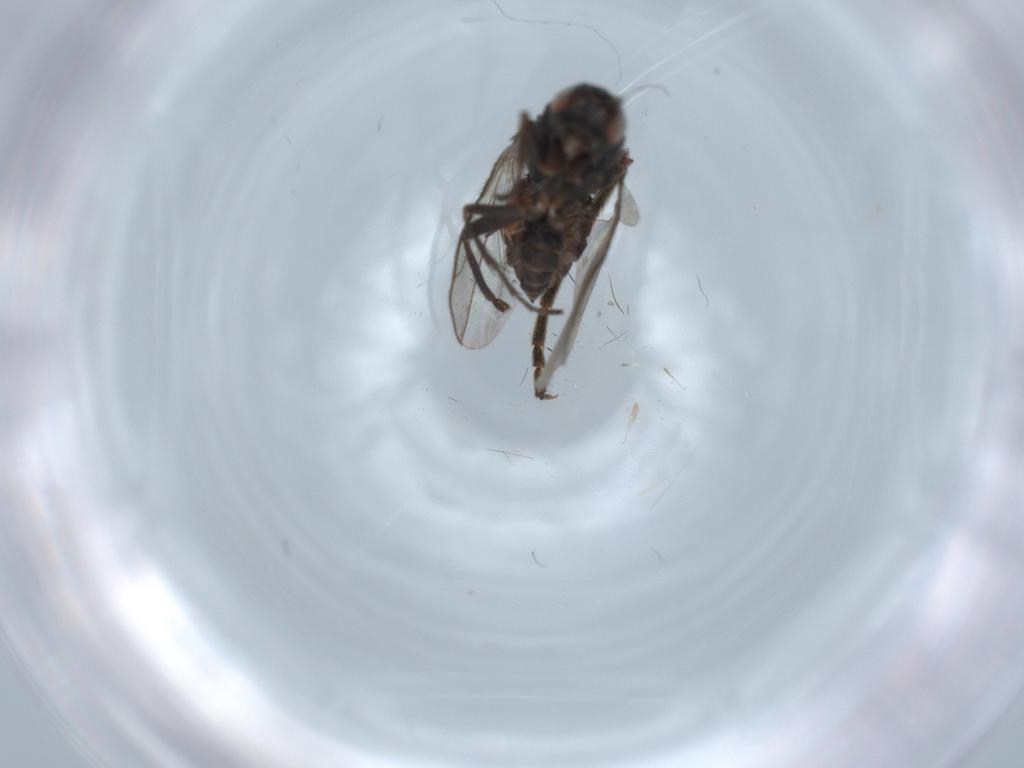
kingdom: Animalia
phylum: Arthropoda
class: Insecta
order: Diptera
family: Sphaeroceridae
